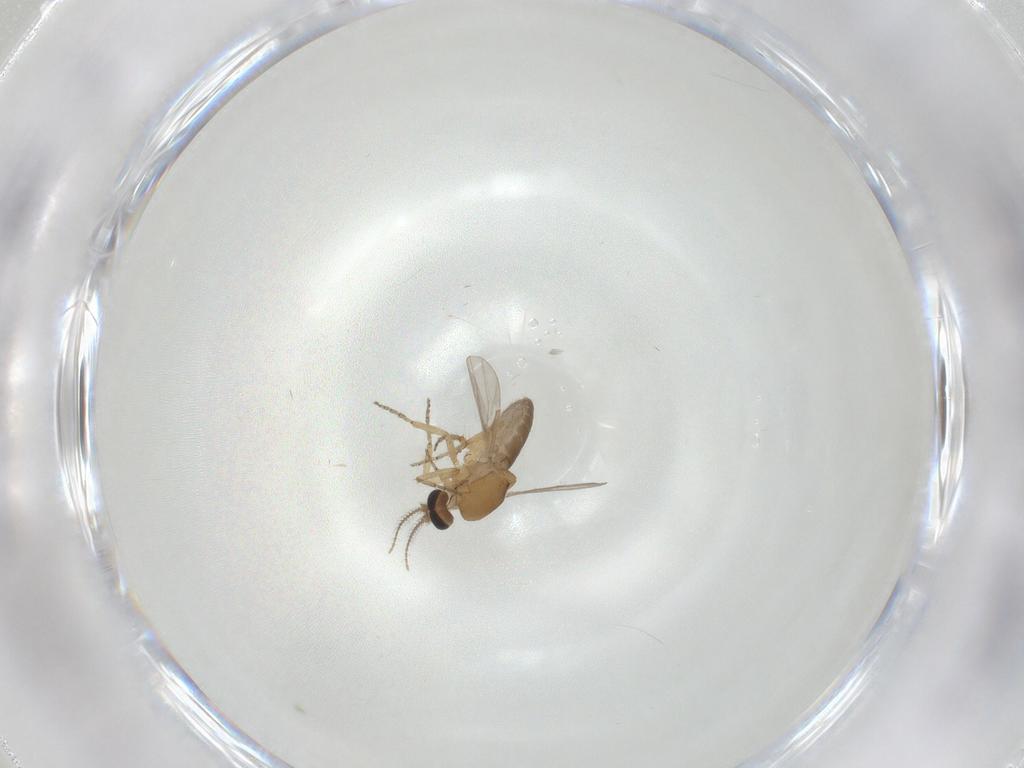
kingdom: Animalia
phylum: Arthropoda
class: Insecta
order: Diptera
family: Ceratopogonidae
